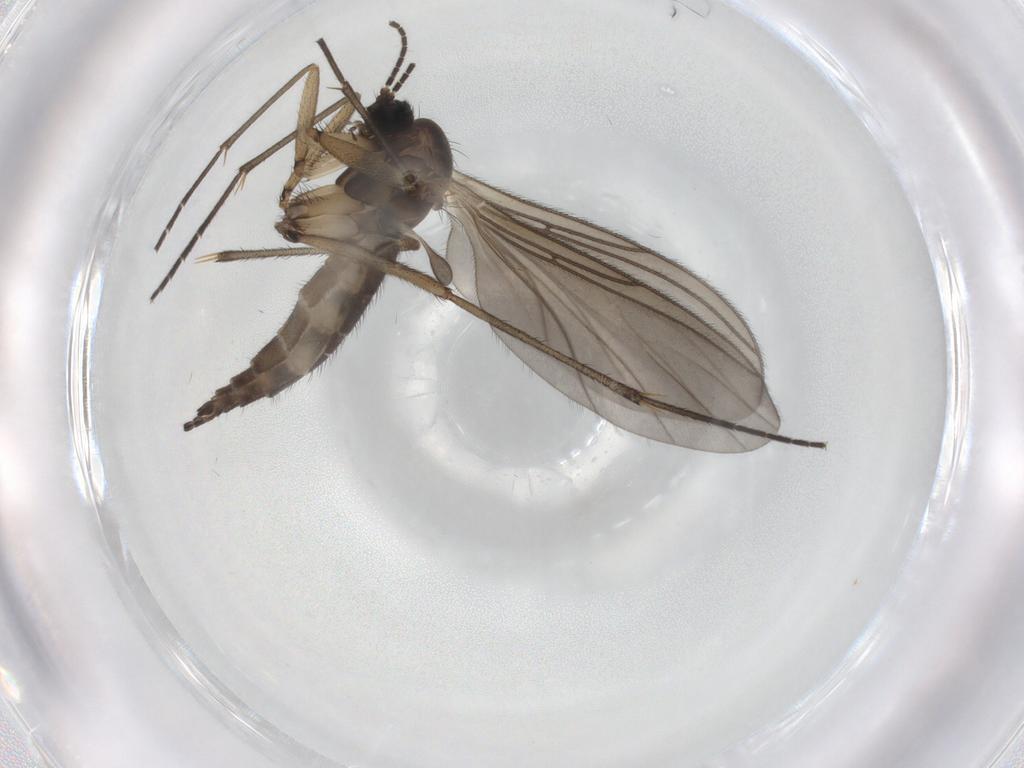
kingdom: Animalia
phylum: Arthropoda
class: Insecta
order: Diptera
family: Sciaridae
